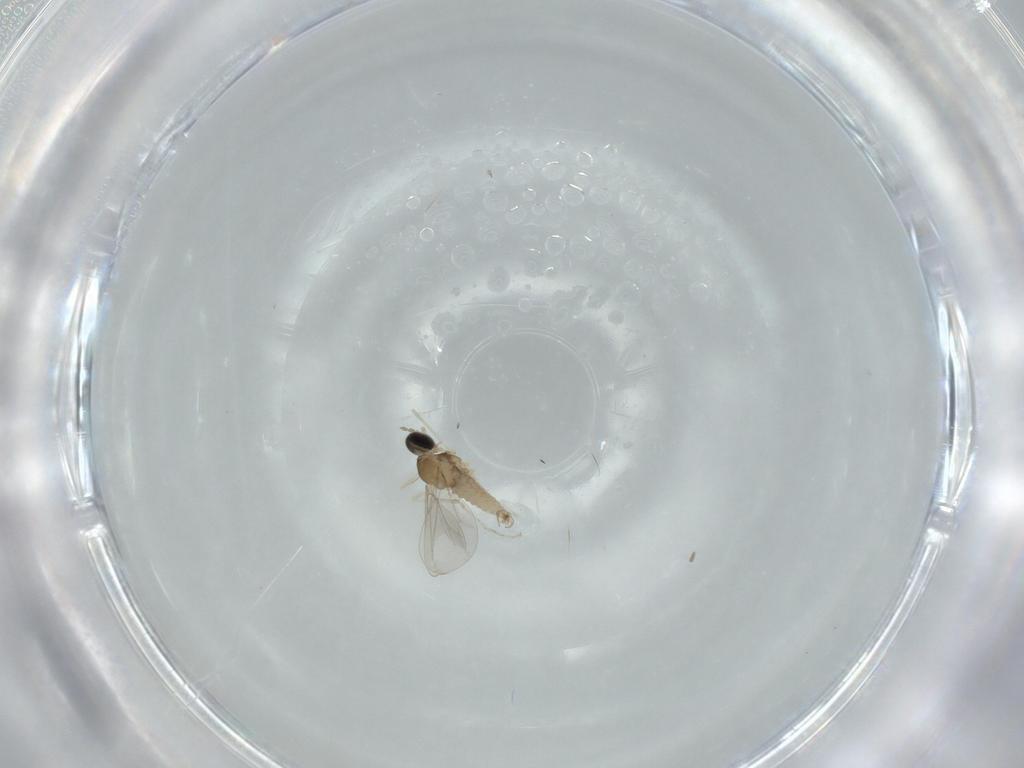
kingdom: Animalia
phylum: Arthropoda
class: Insecta
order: Diptera
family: Cecidomyiidae
